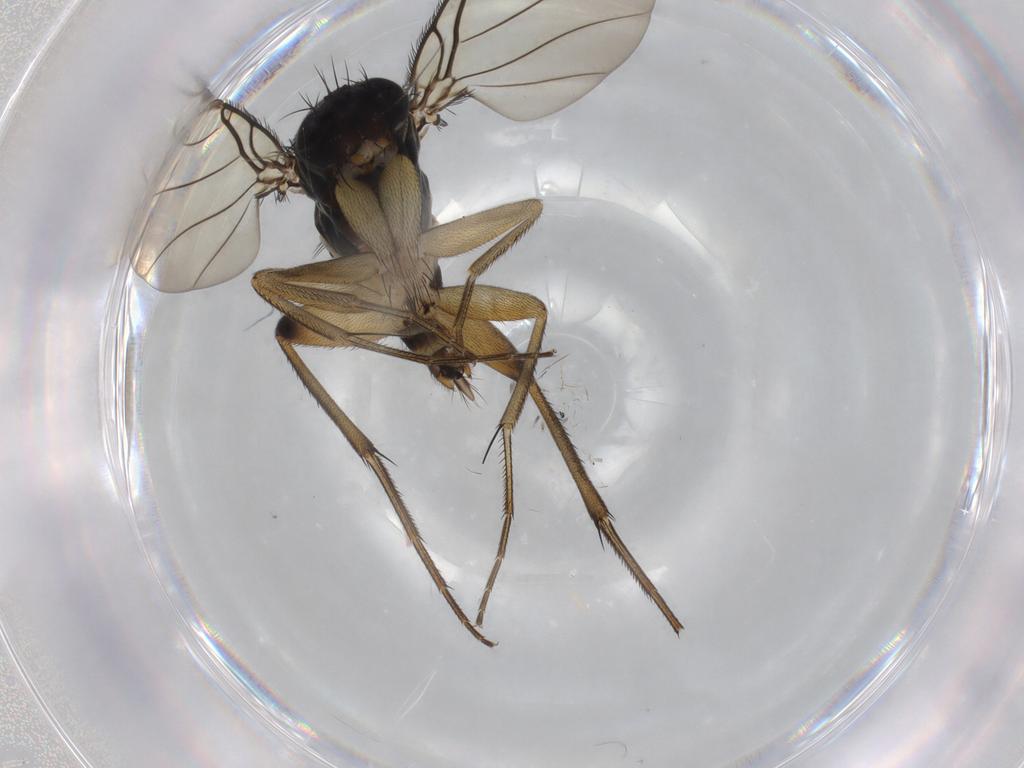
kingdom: Animalia
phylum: Arthropoda
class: Insecta
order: Diptera
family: Phoridae
